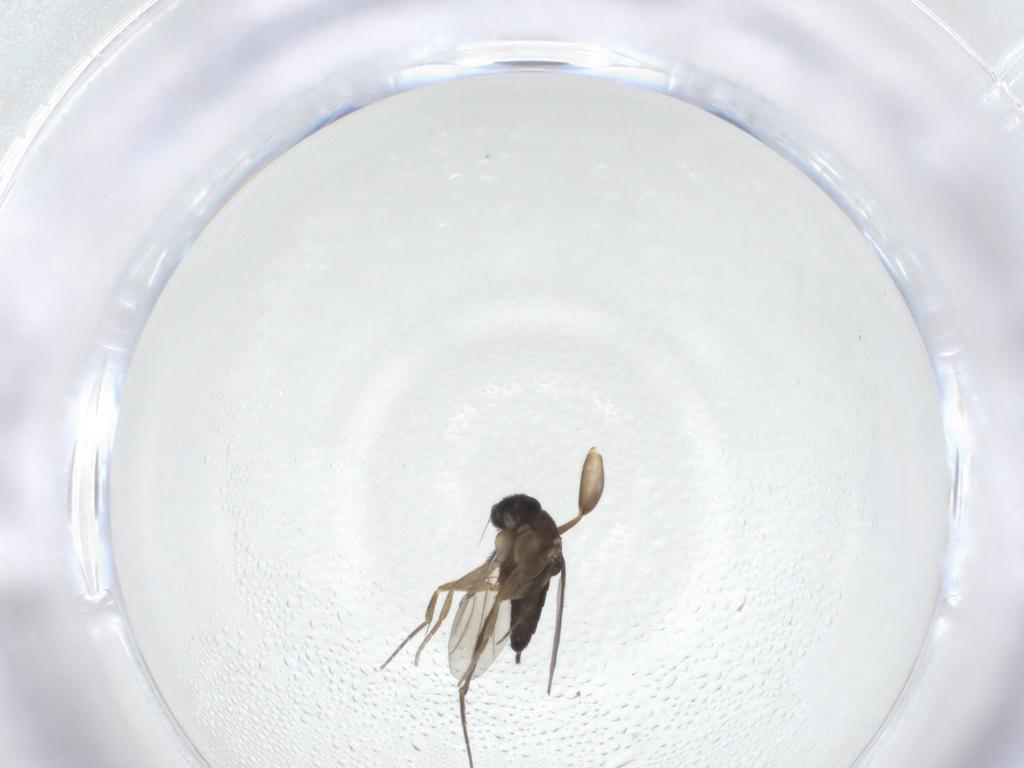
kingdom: Animalia
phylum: Arthropoda
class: Insecta
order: Diptera
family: Phoridae
